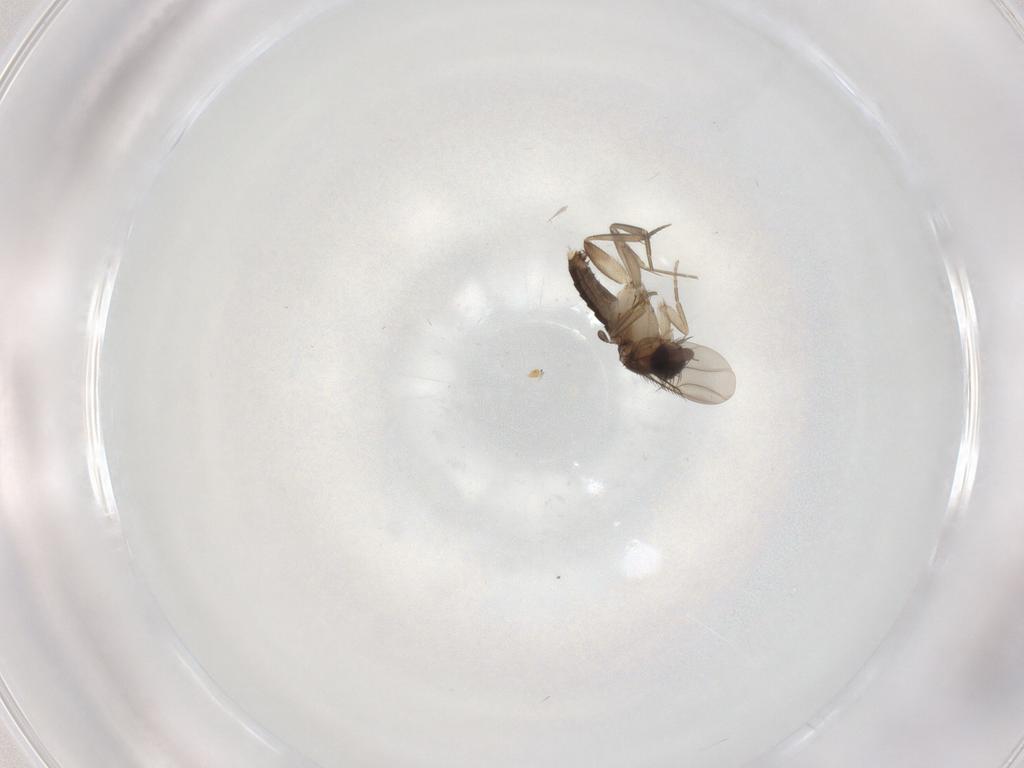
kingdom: Animalia
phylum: Arthropoda
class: Insecta
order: Diptera
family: Phoridae
